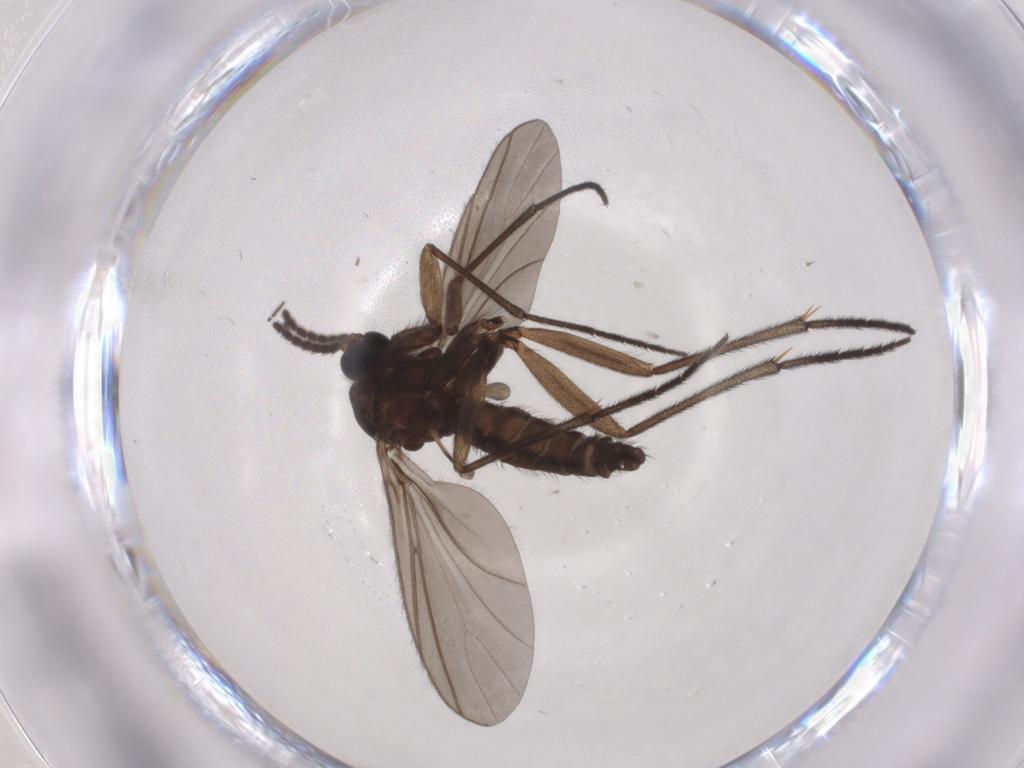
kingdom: Animalia
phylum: Arthropoda
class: Insecta
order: Diptera
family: Sciaridae
